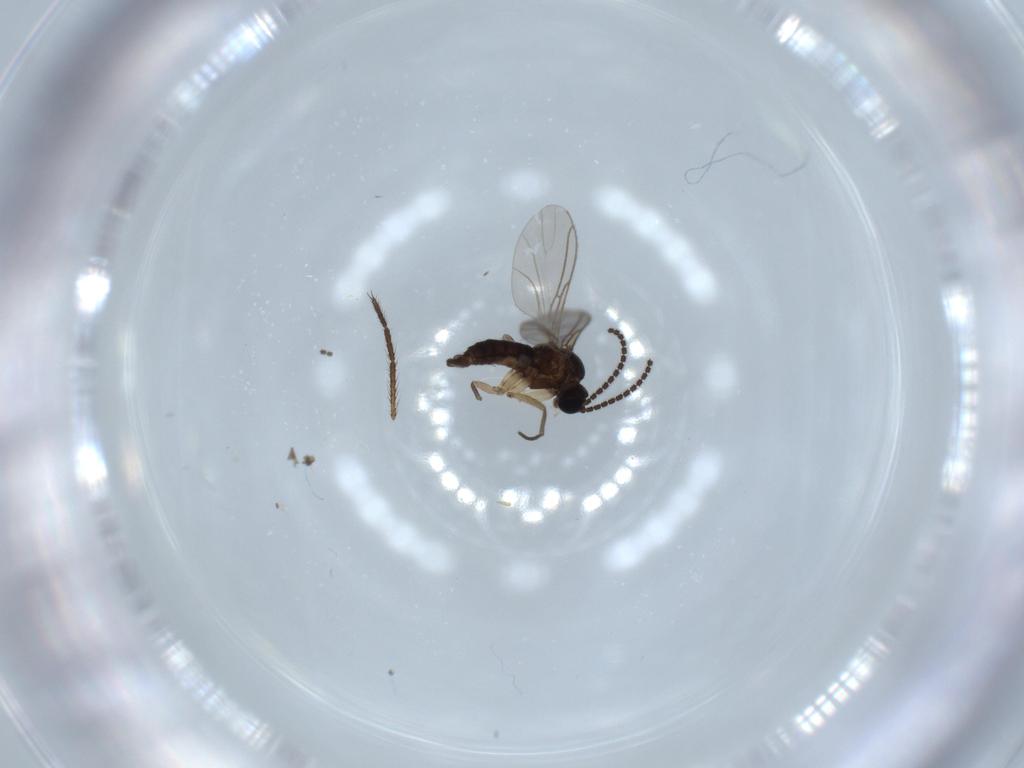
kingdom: Animalia
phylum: Arthropoda
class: Insecta
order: Diptera
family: Sciaridae
